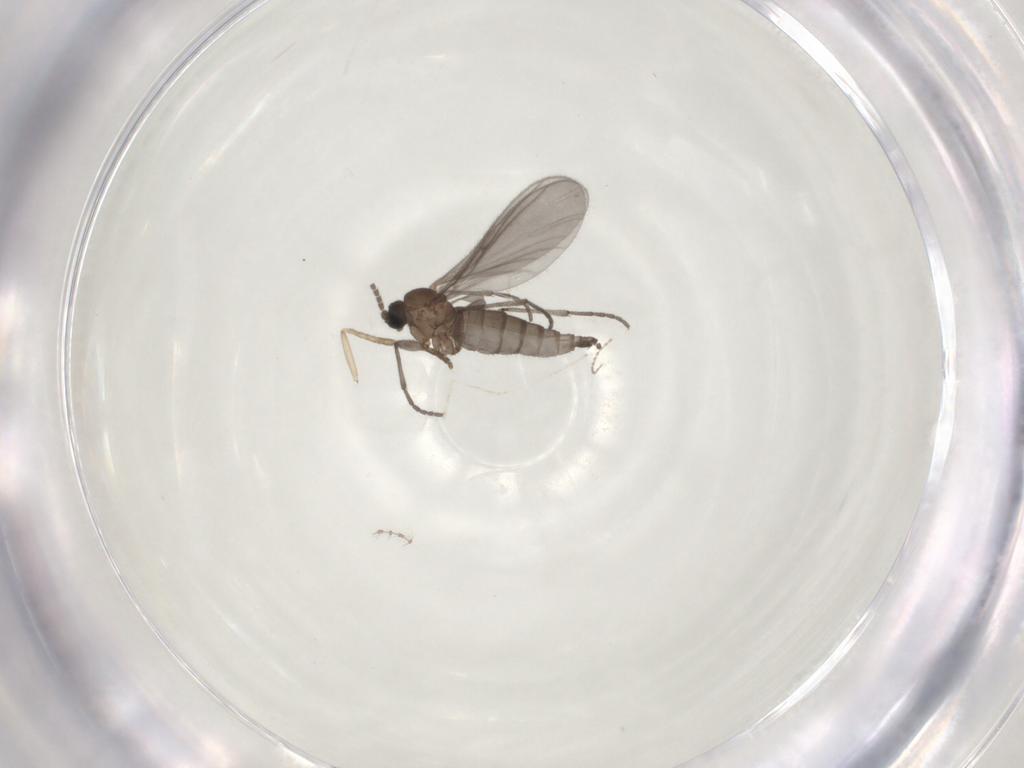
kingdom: Animalia
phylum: Arthropoda
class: Insecta
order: Diptera
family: Sciaridae
